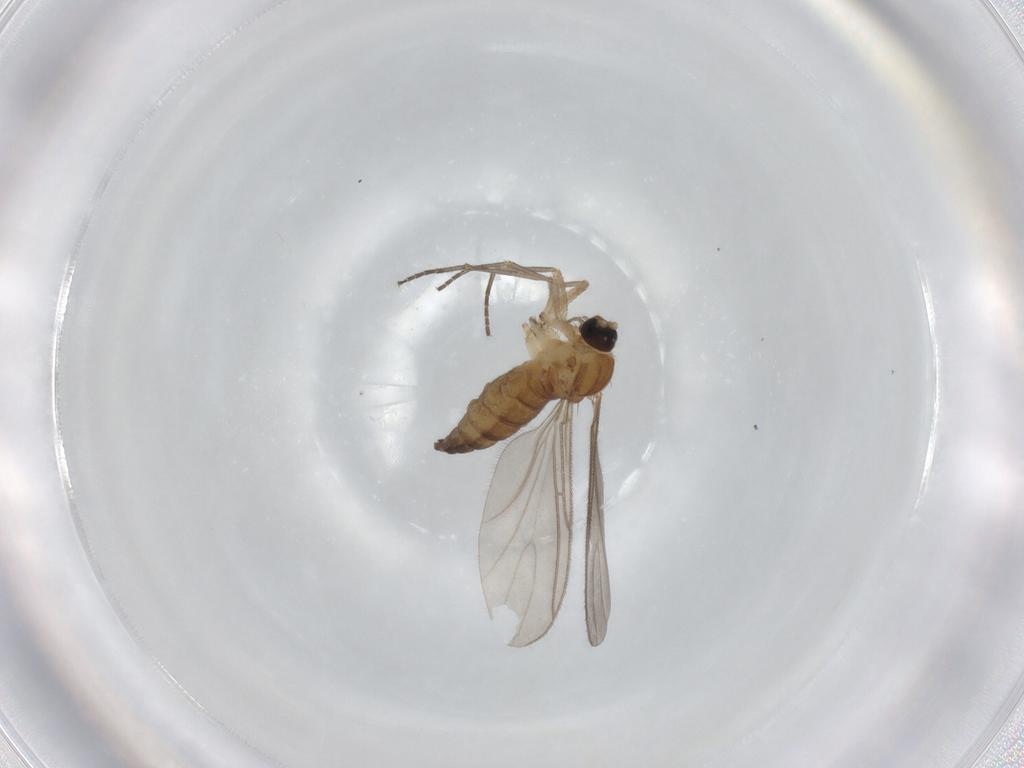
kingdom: Animalia
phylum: Arthropoda
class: Insecta
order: Diptera
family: Sciaridae
